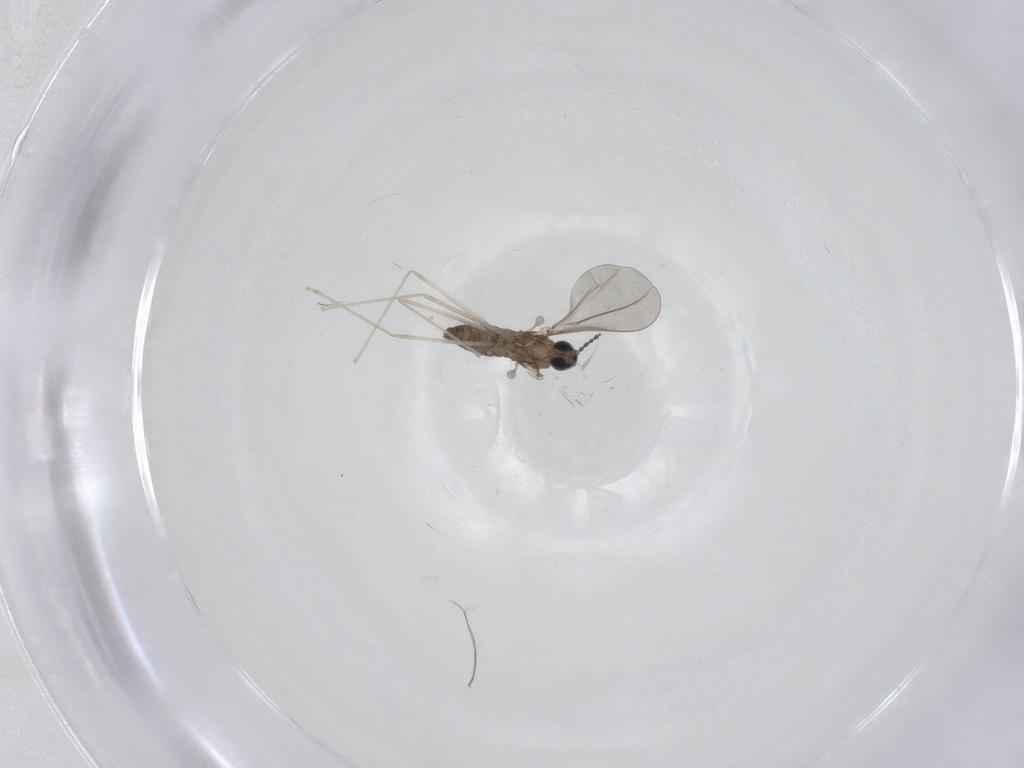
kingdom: Animalia
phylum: Arthropoda
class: Insecta
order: Diptera
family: Cecidomyiidae
